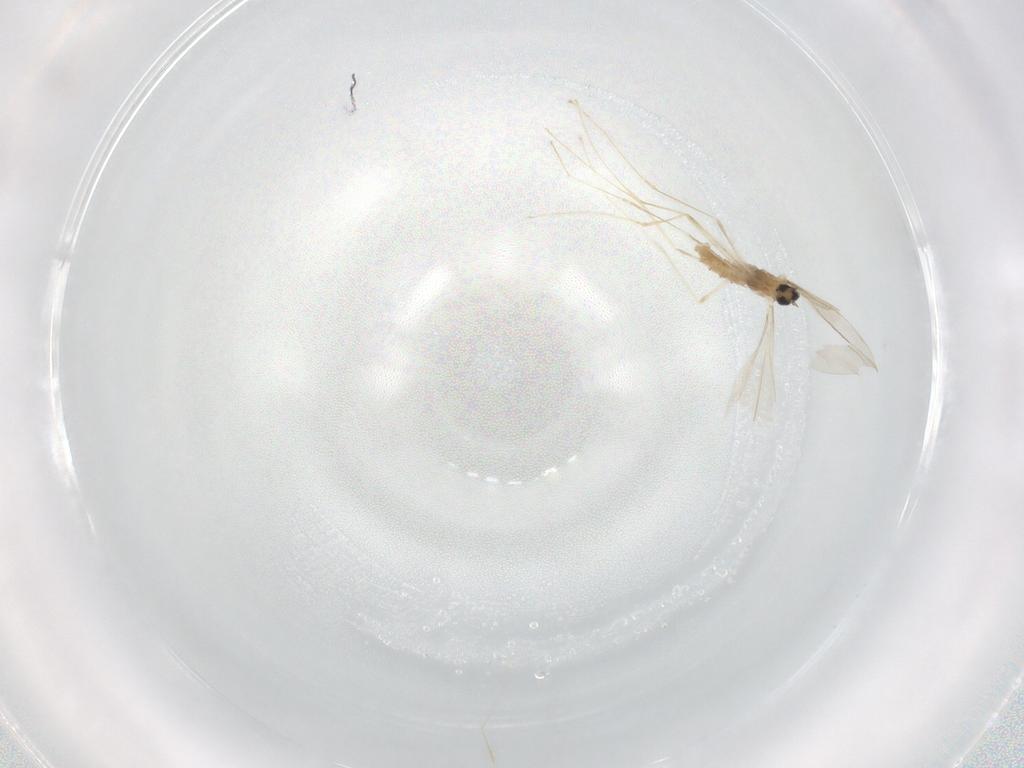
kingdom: Animalia
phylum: Arthropoda
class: Insecta
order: Diptera
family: Cecidomyiidae
